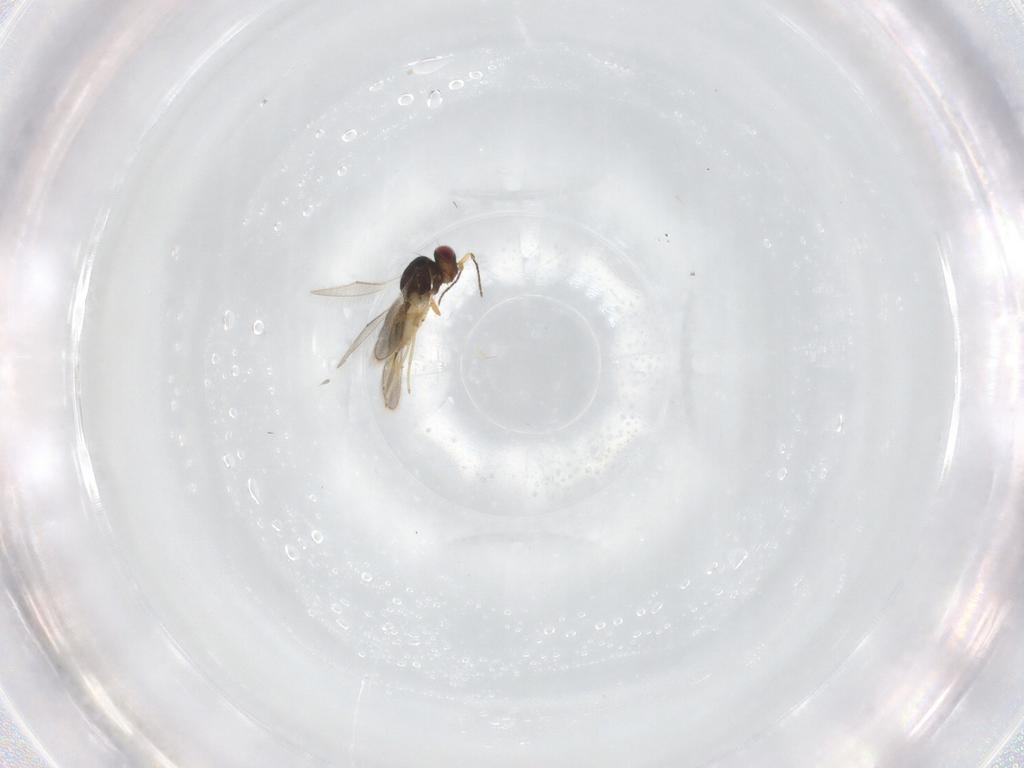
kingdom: Animalia
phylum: Arthropoda
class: Insecta
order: Hymenoptera
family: Eulophidae
